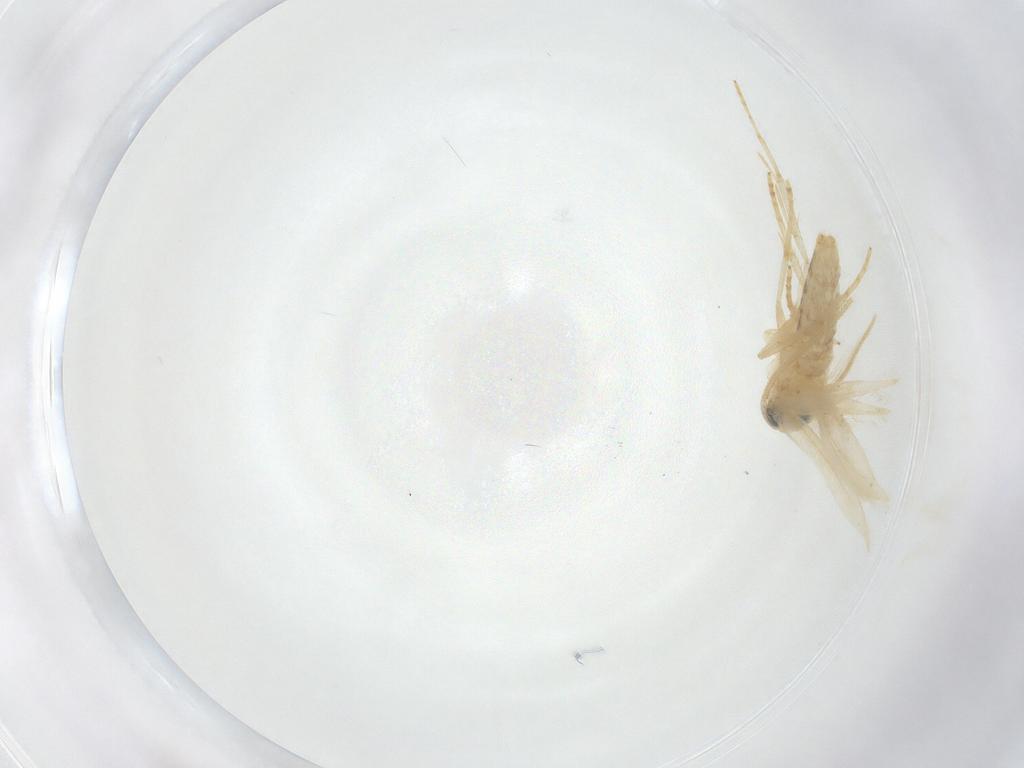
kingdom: Animalia
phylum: Arthropoda
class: Insecta
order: Lepidoptera
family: Opostegidae
